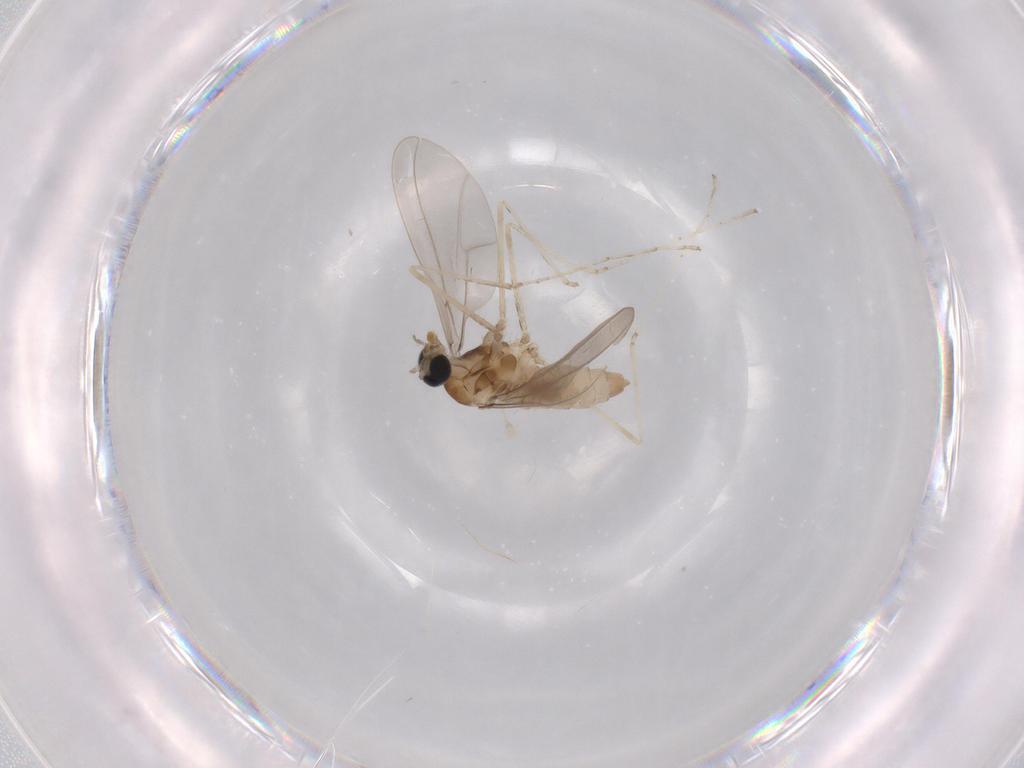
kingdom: Animalia
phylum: Arthropoda
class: Insecta
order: Diptera
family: Cecidomyiidae
